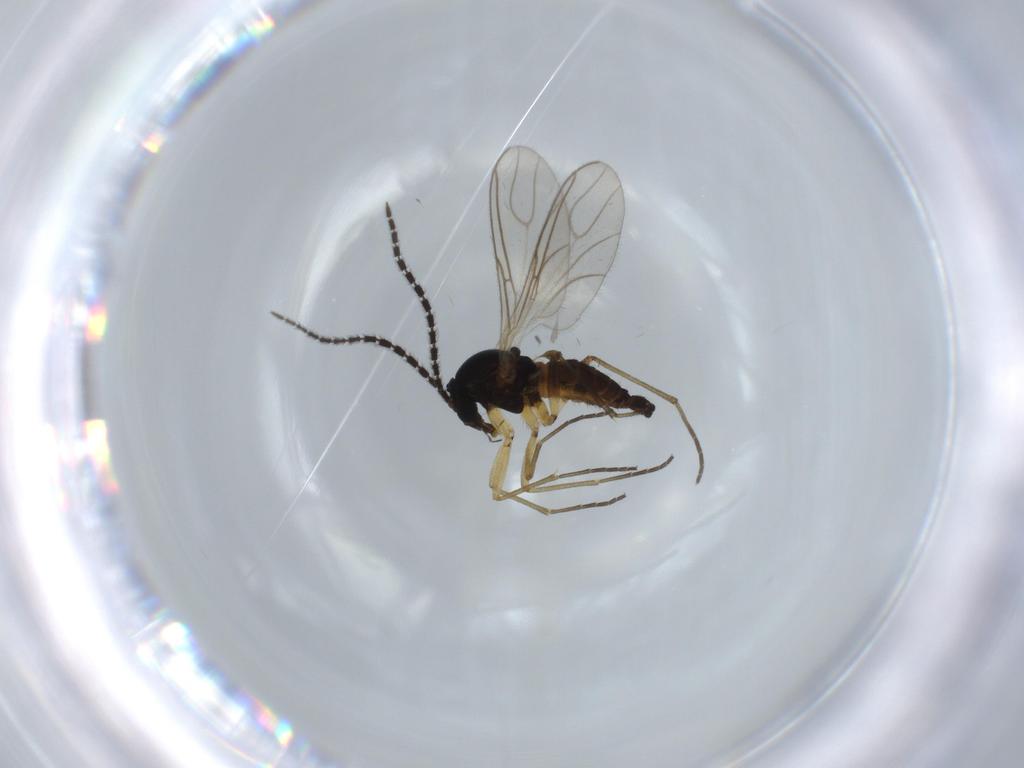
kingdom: Animalia
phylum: Arthropoda
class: Insecta
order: Diptera
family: Sciaridae
